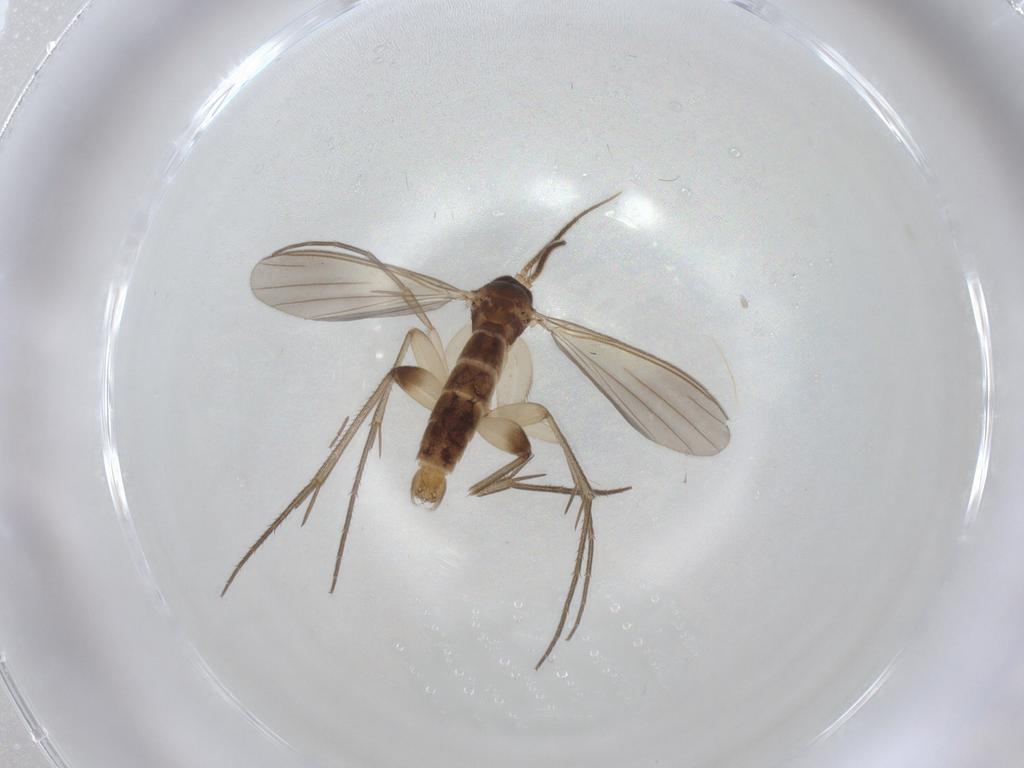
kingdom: Animalia
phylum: Arthropoda
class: Insecta
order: Diptera
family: Mycetophilidae
